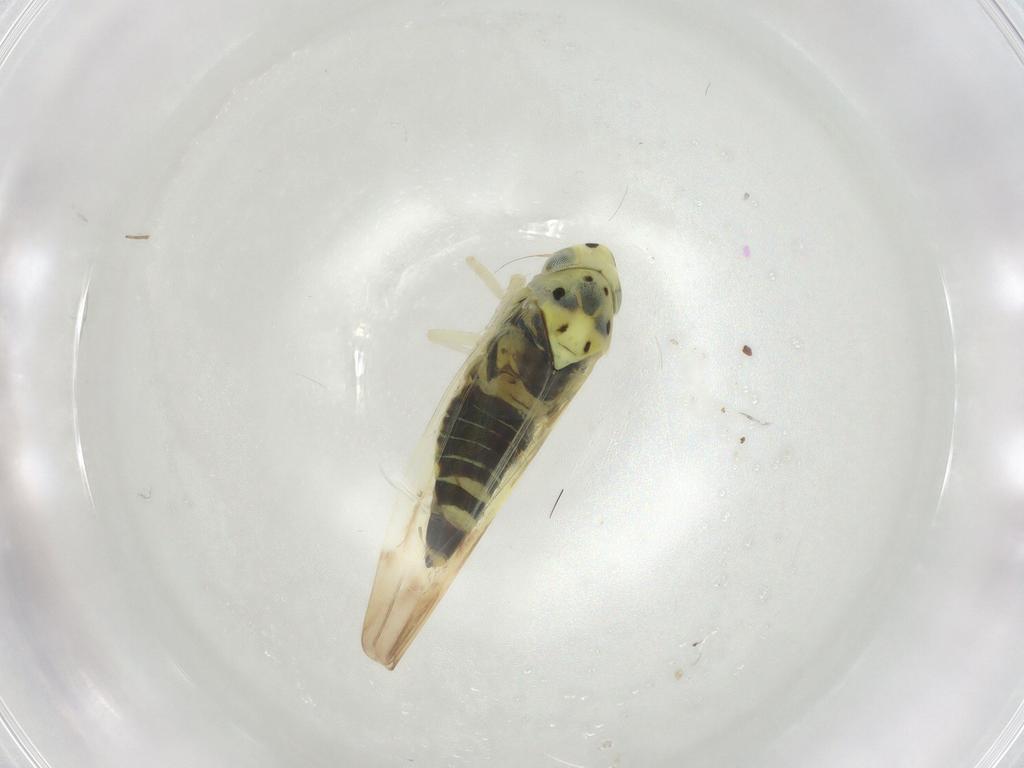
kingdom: Animalia
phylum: Arthropoda
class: Insecta
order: Hemiptera
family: Cicadellidae
